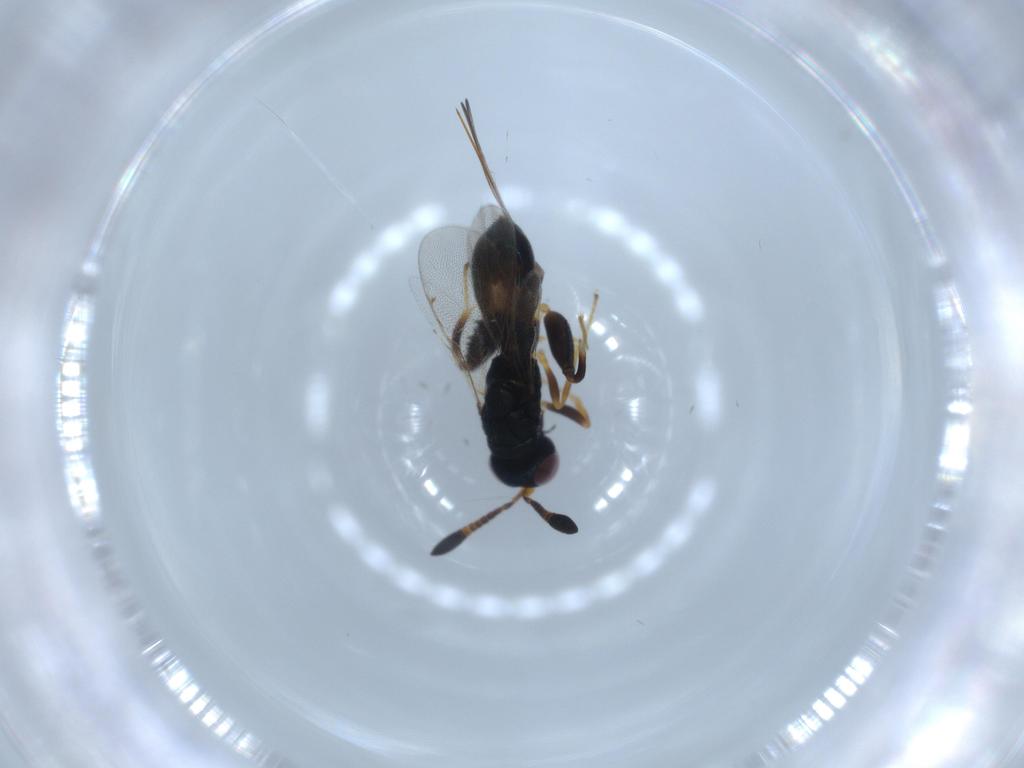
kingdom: Animalia
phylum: Arthropoda
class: Insecta
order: Hymenoptera
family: Torymidae
